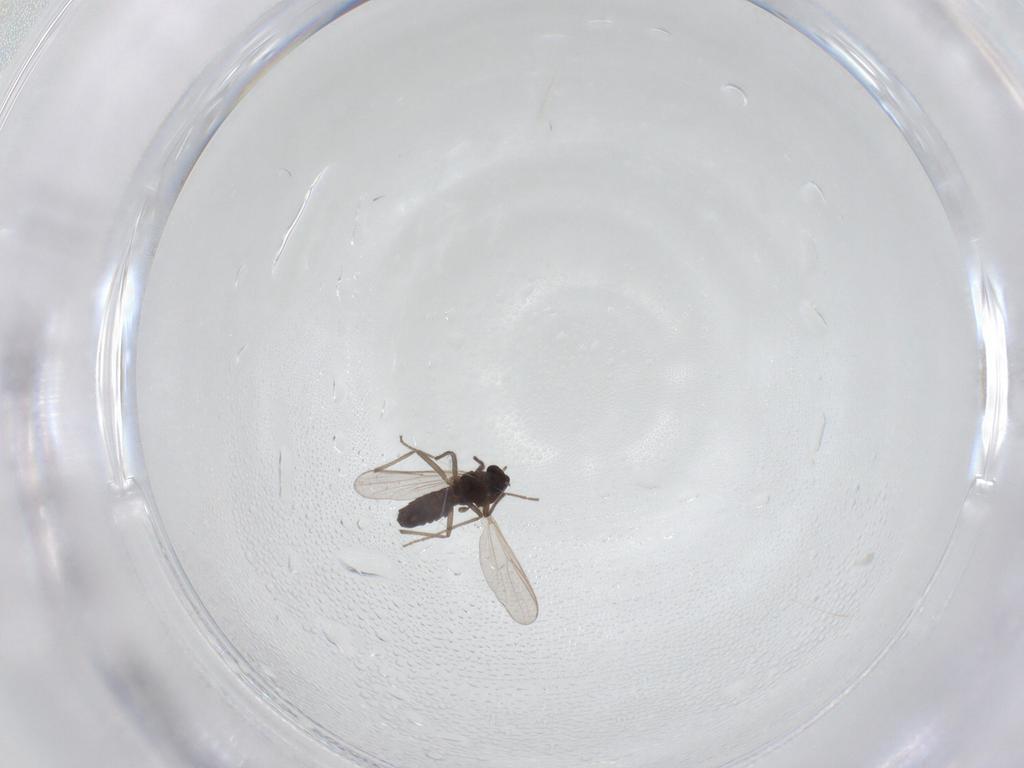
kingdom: Animalia
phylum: Arthropoda
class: Insecta
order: Diptera
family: Chironomidae
